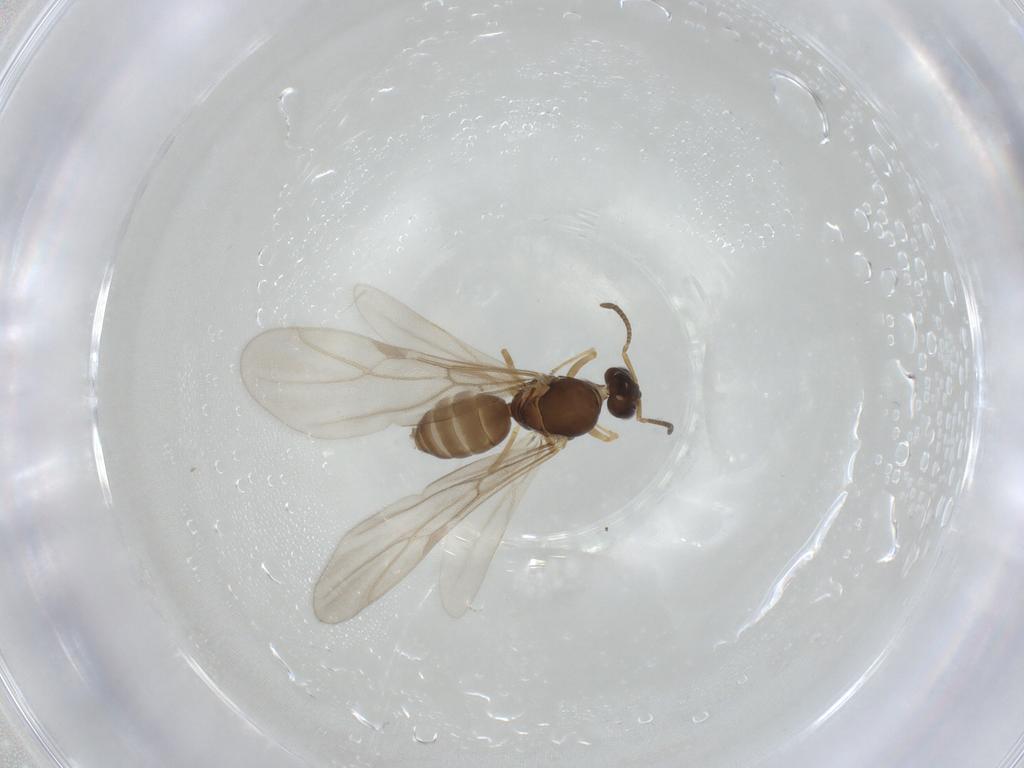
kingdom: Animalia
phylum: Arthropoda
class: Insecta
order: Hymenoptera
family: Formicidae
